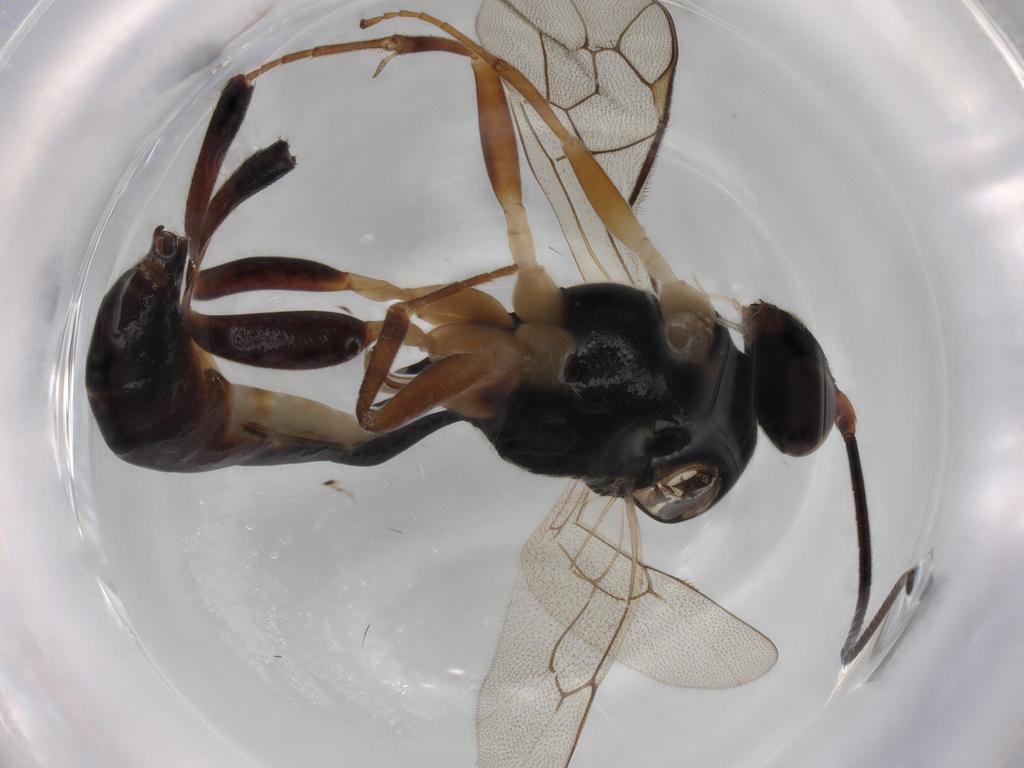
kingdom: Animalia
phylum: Arthropoda
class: Insecta
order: Hymenoptera
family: Ichneumonidae
